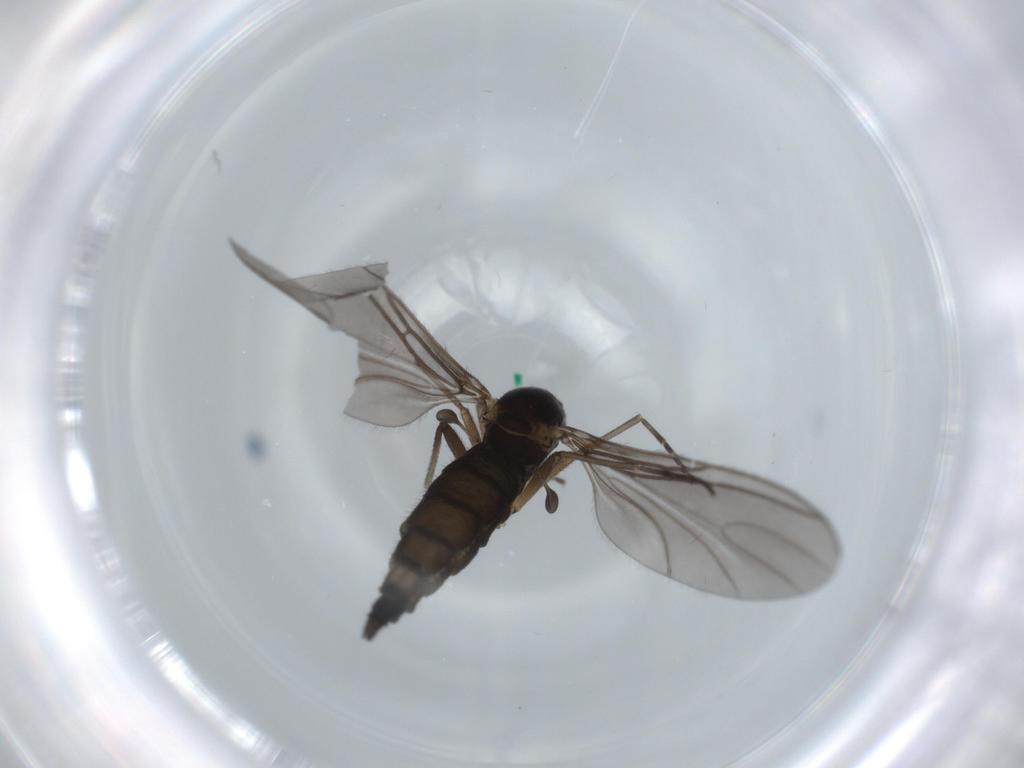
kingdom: Animalia
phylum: Arthropoda
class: Insecta
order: Diptera
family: Sciaridae
